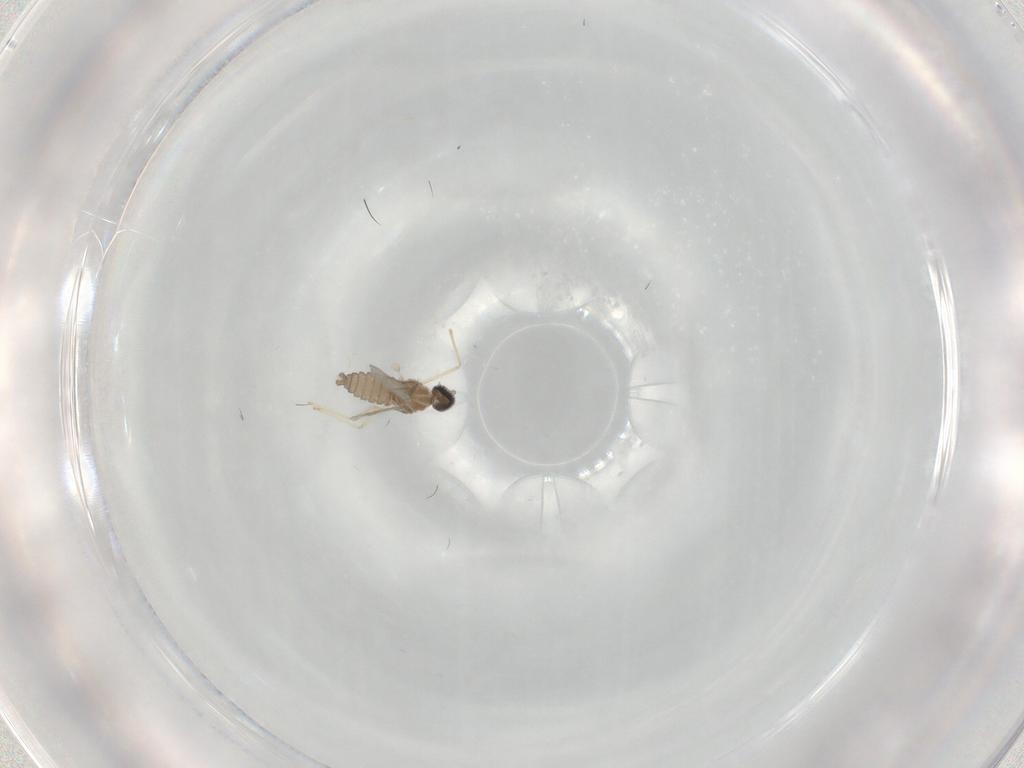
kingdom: Animalia
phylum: Arthropoda
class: Insecta
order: Diptera
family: Cecidomyiidae
